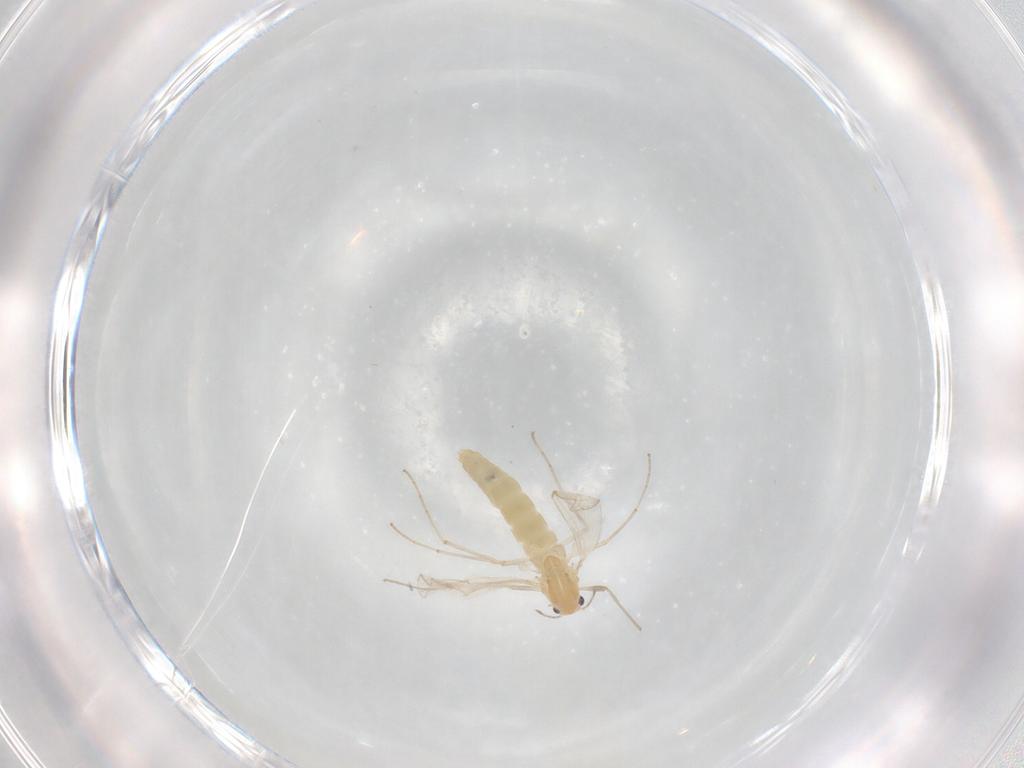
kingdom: Animalia
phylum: Arthropoda
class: Insecta
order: Diptera
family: Chironomidae
